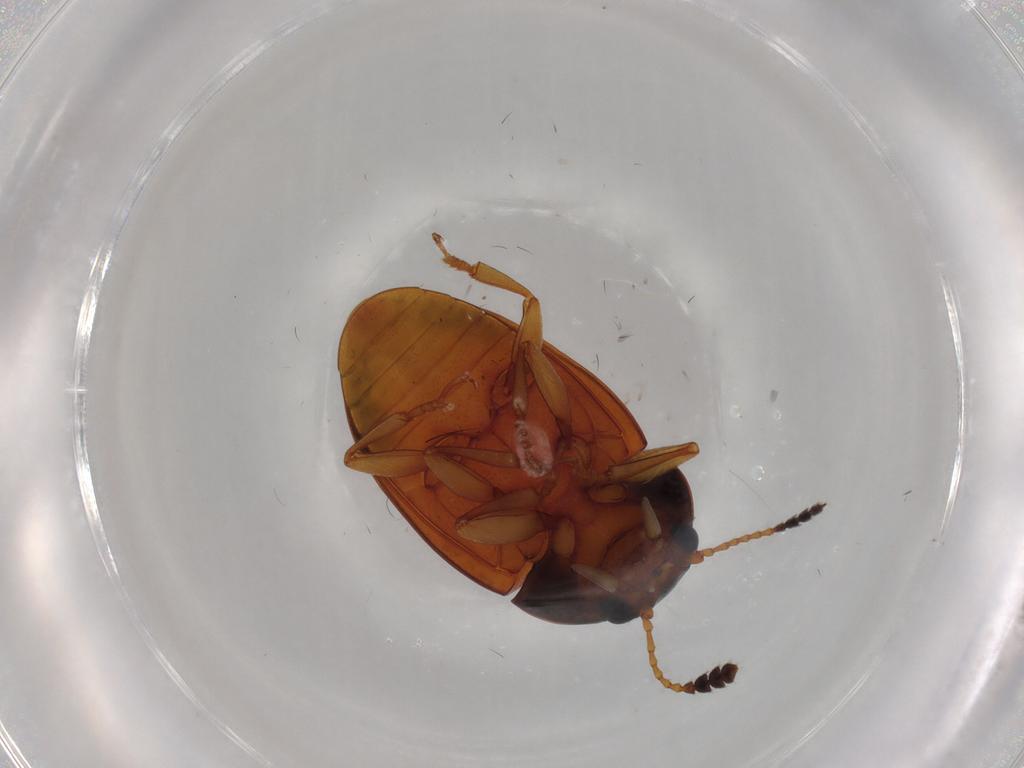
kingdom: Animalia
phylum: Arthropoda
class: Insecta
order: Coleoptera
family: Erotylidae
